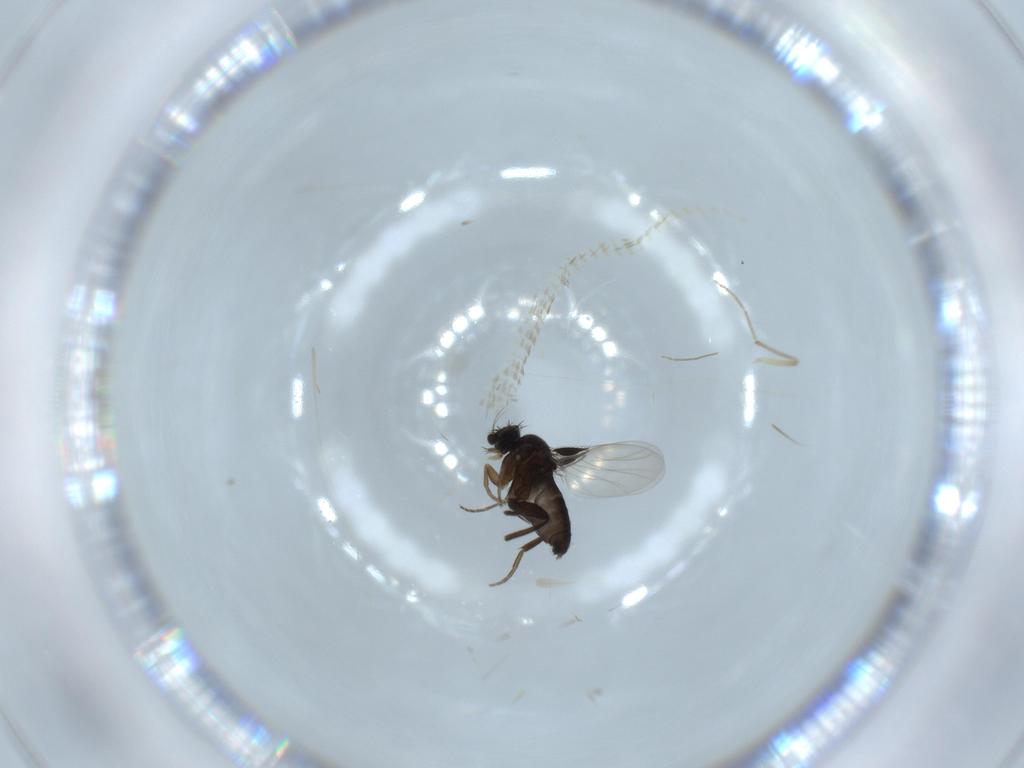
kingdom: Animalia
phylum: Arthropoda
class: Insecta
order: Diptera
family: Phoridae
